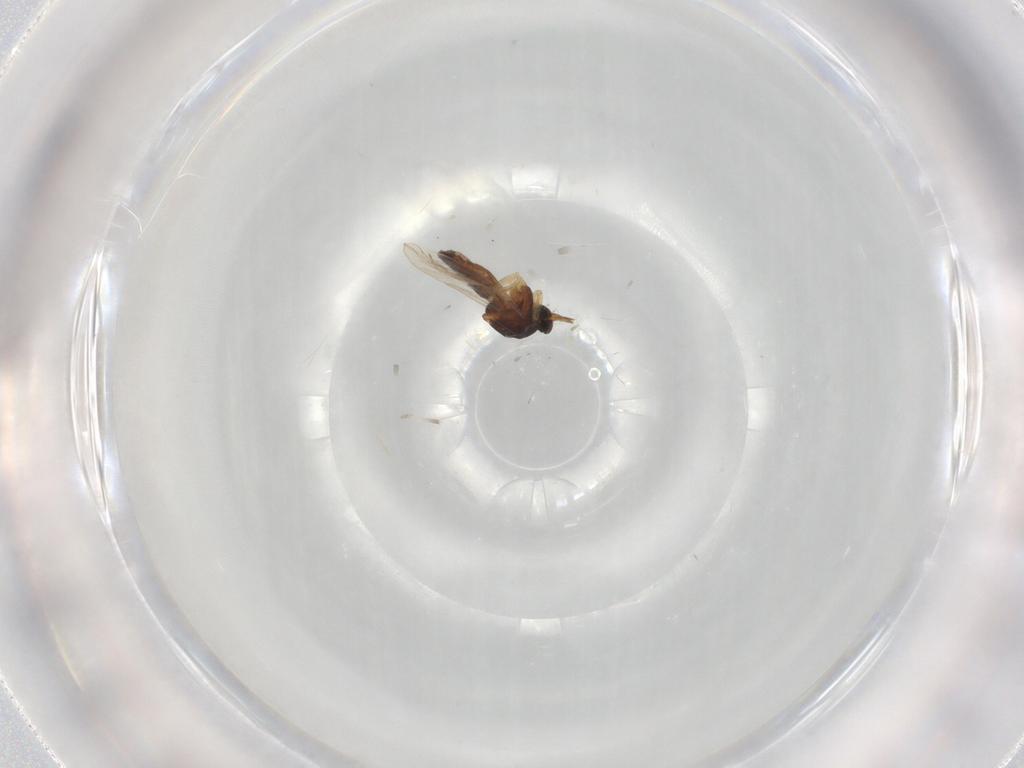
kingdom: Animalia
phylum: Arthropoda
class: Insecta
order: Diptera
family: Ceratopogonidae
